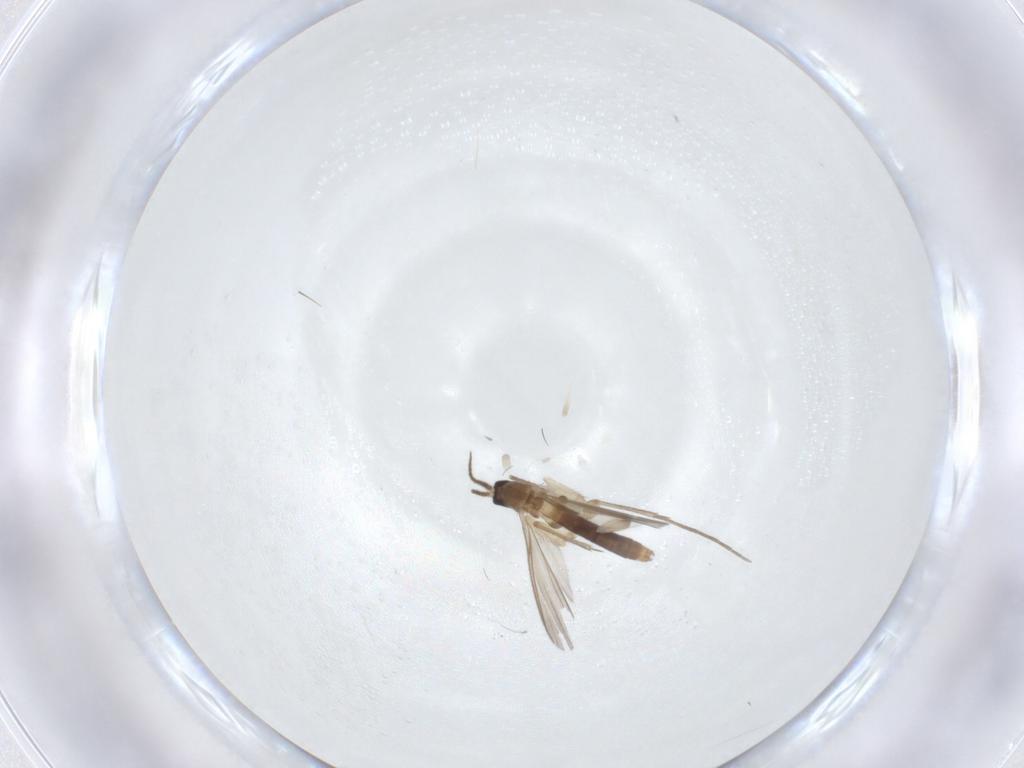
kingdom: Animalia
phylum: Arthropoda
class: Insecta
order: Diptera
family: Mycetophilidae
